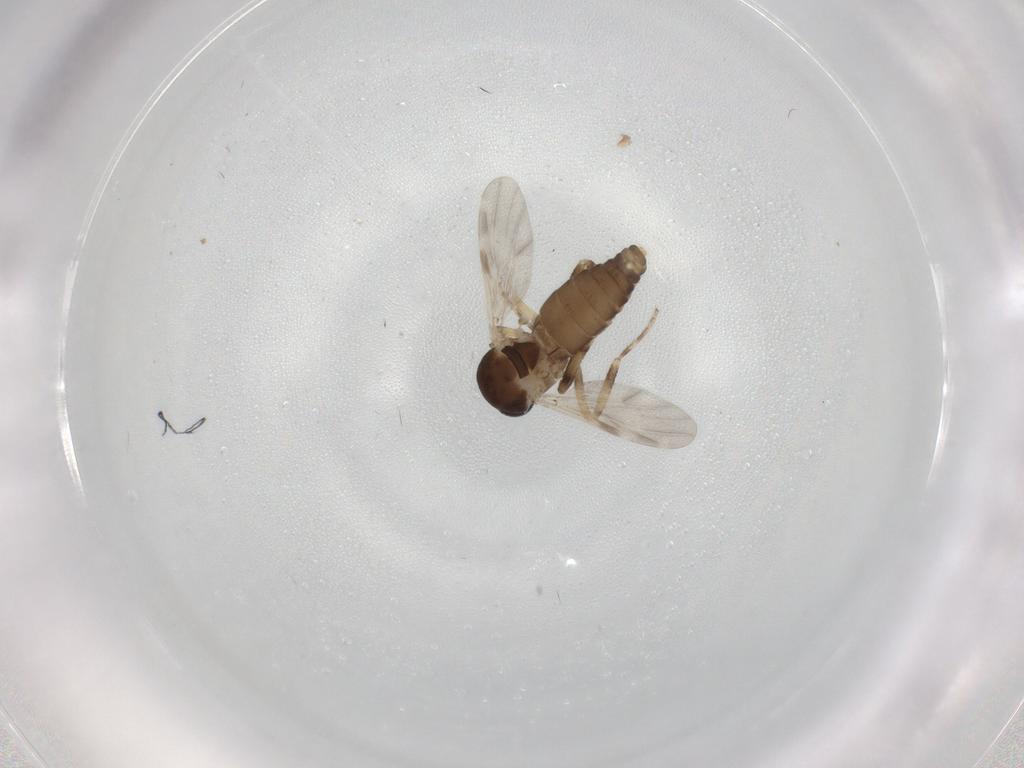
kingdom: Animalia
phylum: Arthropoda
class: Insecta
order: Diptera
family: Ceratopogonidae
